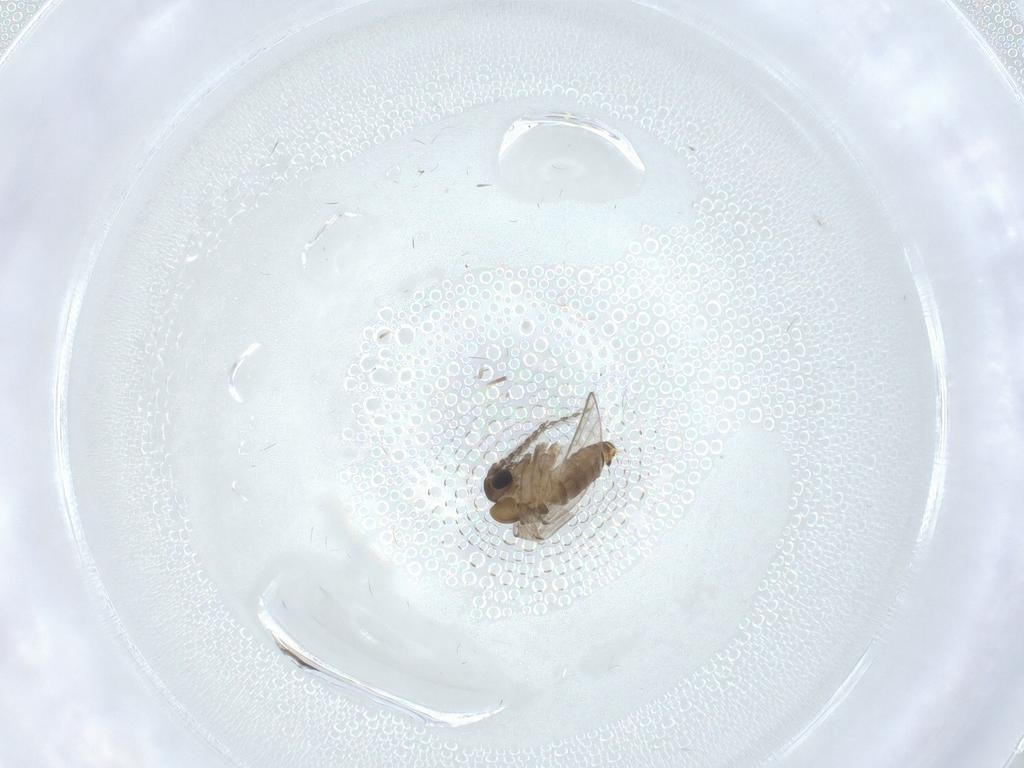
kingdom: Animalia
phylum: Arthropoda
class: Insecta
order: Diptera
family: Psychodidae
